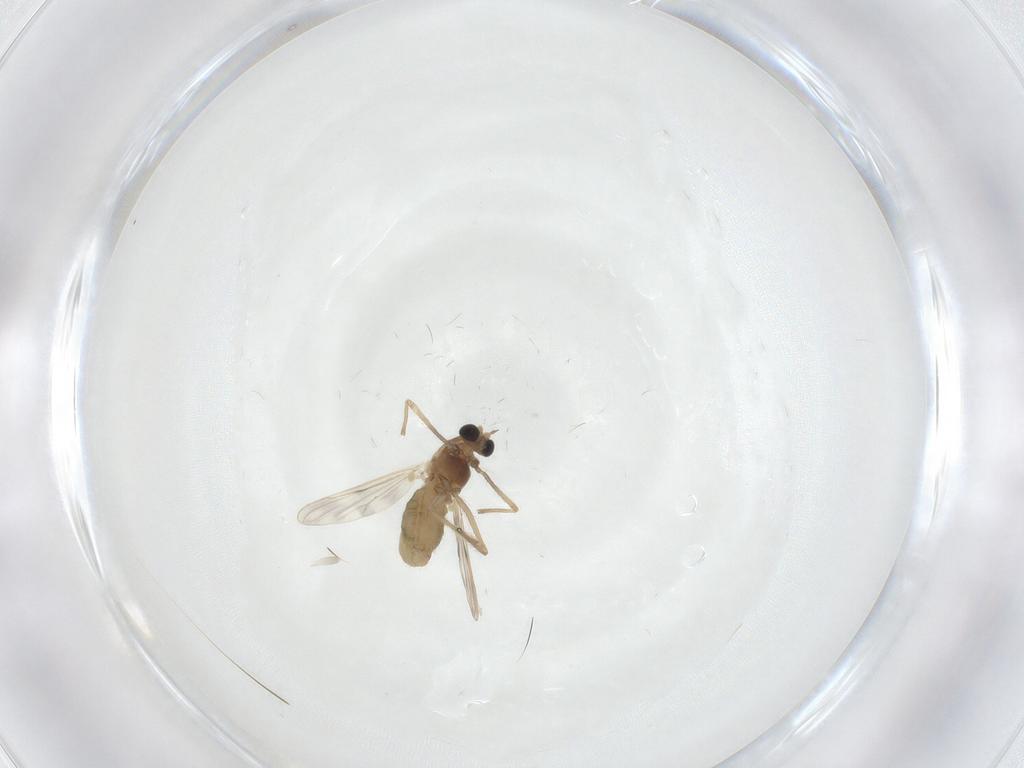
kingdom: Animalia
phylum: Arthropoda
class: Insecta
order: Diptera
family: Chironomidae
